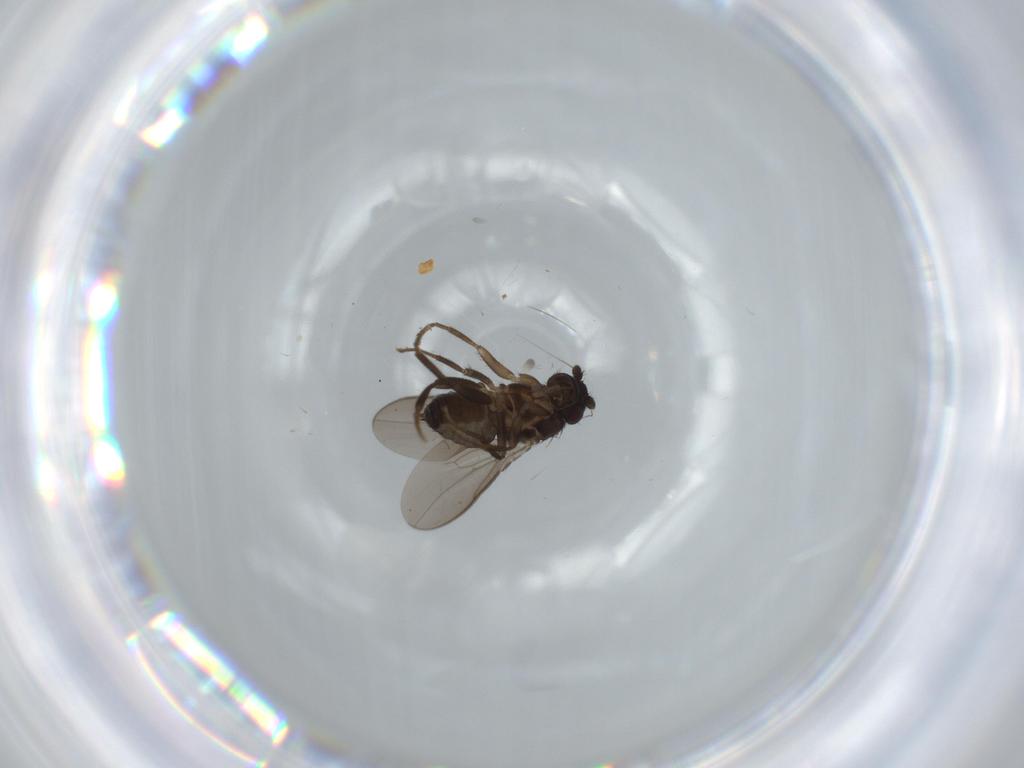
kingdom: Animalia
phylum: Arthropoda
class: Insecta
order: Diptera
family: Sphaeroceridae
